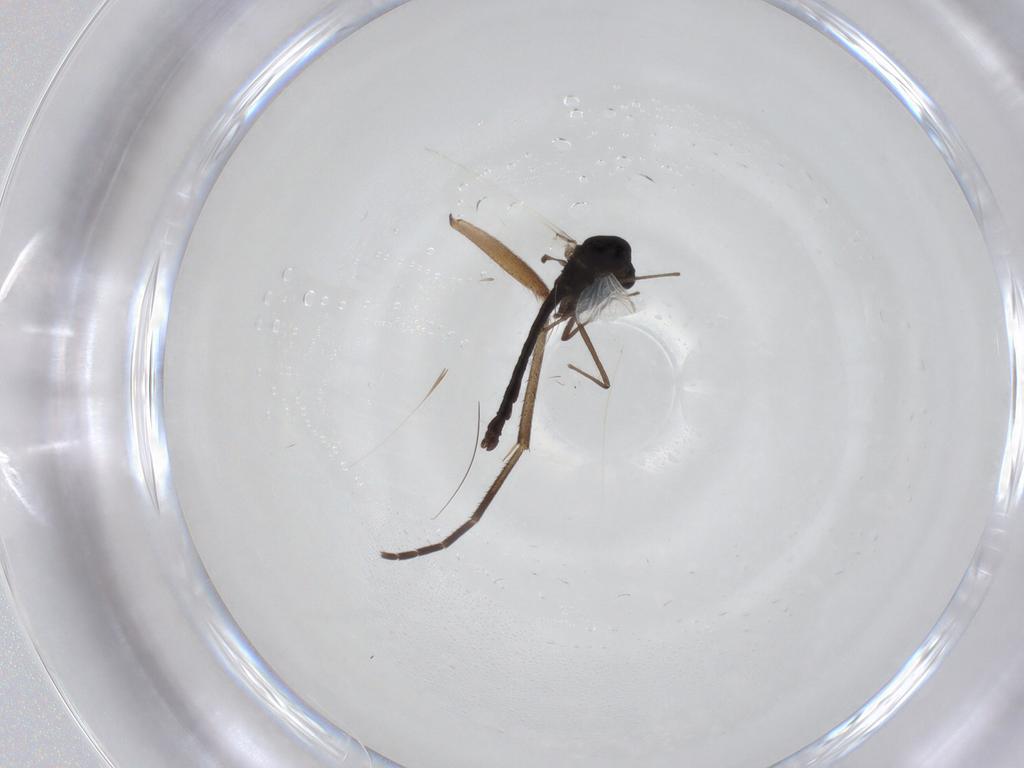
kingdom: Animalia
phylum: Arthropoda
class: Insecta
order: Diptera
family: Chironomidae
